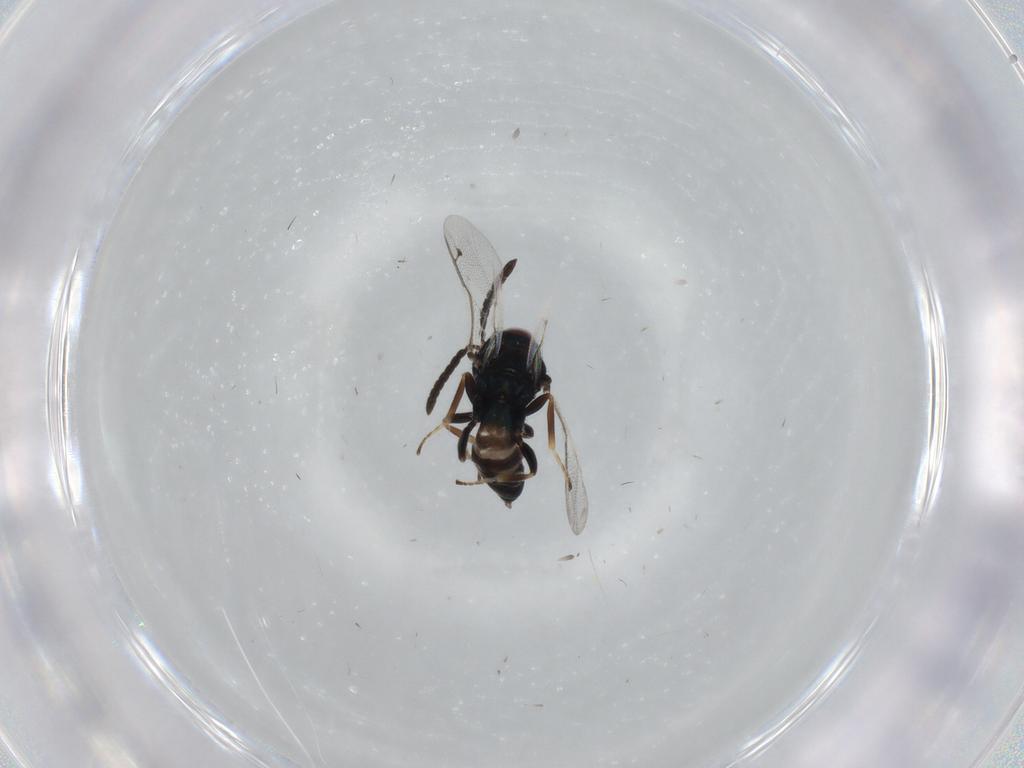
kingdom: Animalia
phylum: Arthropoda
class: Insecta
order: Hymenoptera
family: Pteromalidae
